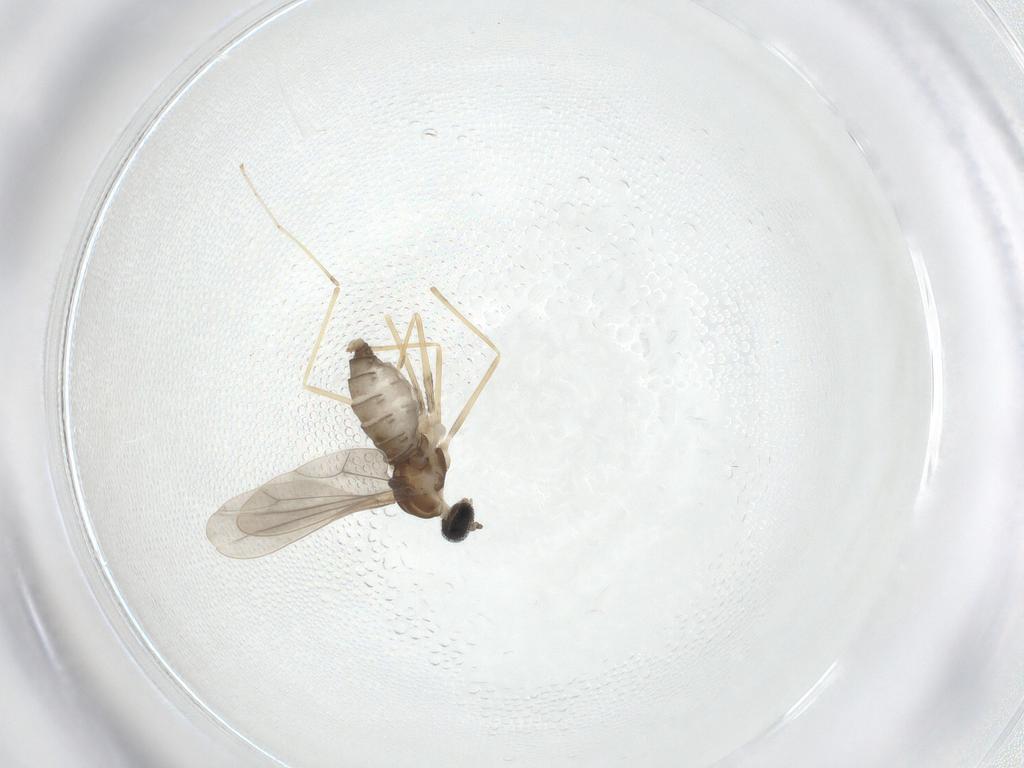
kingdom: Animalia
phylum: Arthropoda
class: Insecta
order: Diptera
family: Cecidomyiidae
